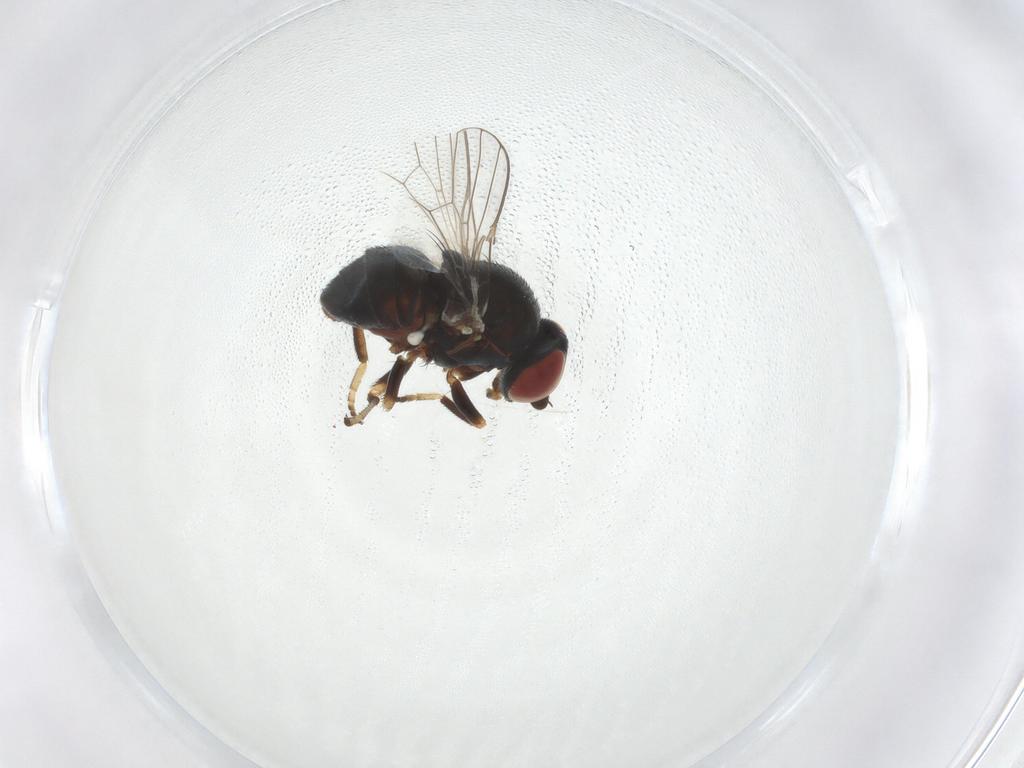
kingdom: Animalia
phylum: Arthropoda
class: Insecta
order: Diptera
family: Chamaemyiidae
